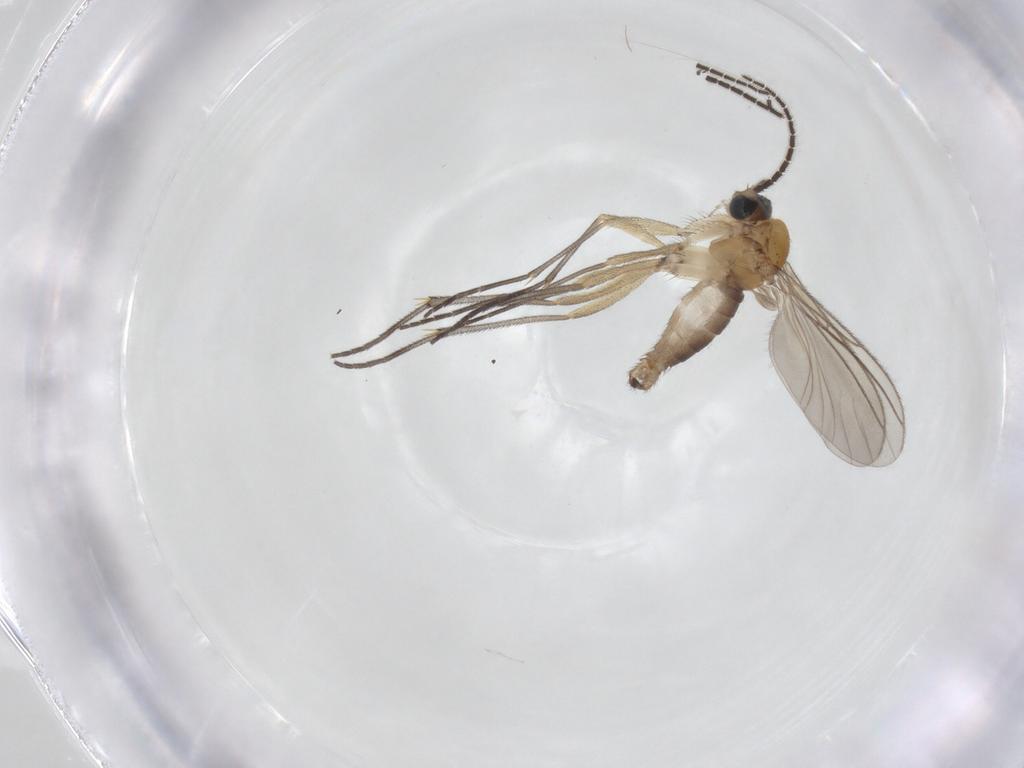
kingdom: Animalia
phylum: Arthropoda
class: Insecta
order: Diptera
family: Sciaridae
